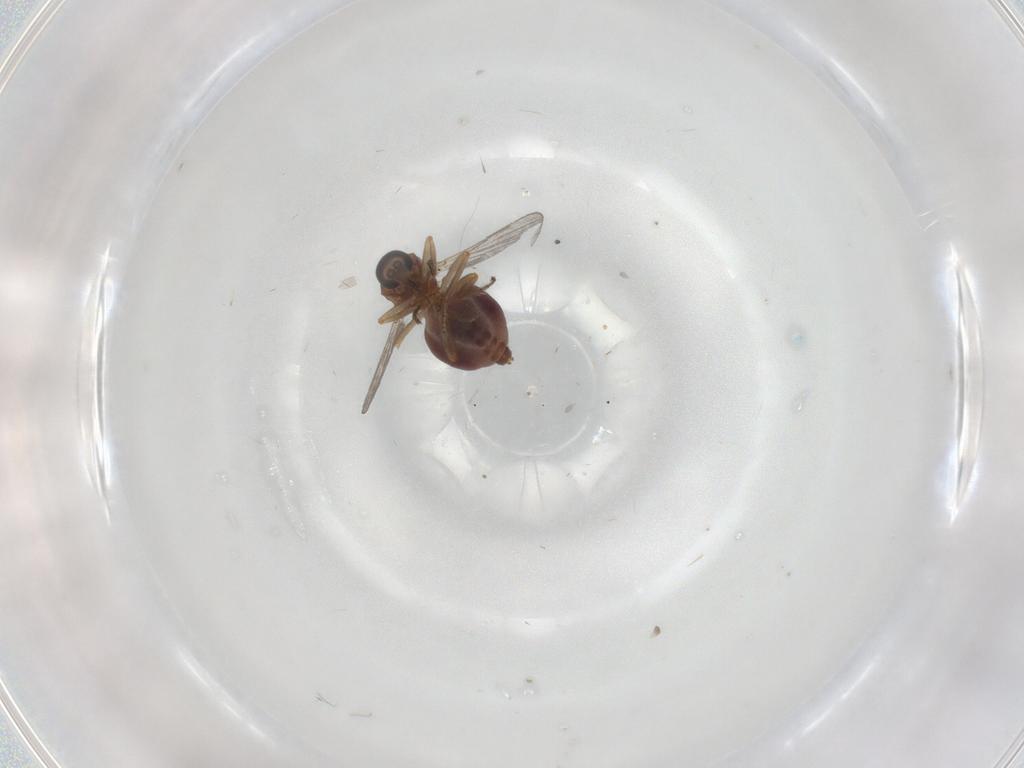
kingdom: Animalia
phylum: Arthropoda
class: Insecta
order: Diptera
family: Ceratopogonidae
